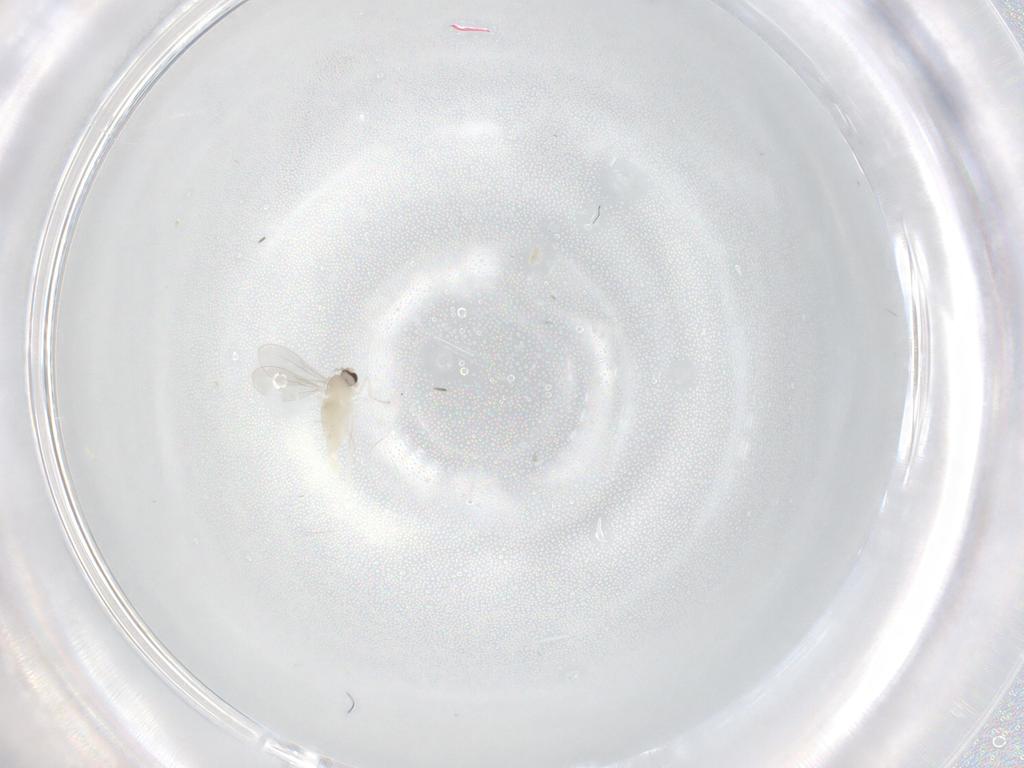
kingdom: Animalia
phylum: Arthropoda
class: Insecta
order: Diptera
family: Cecidomyiidae
